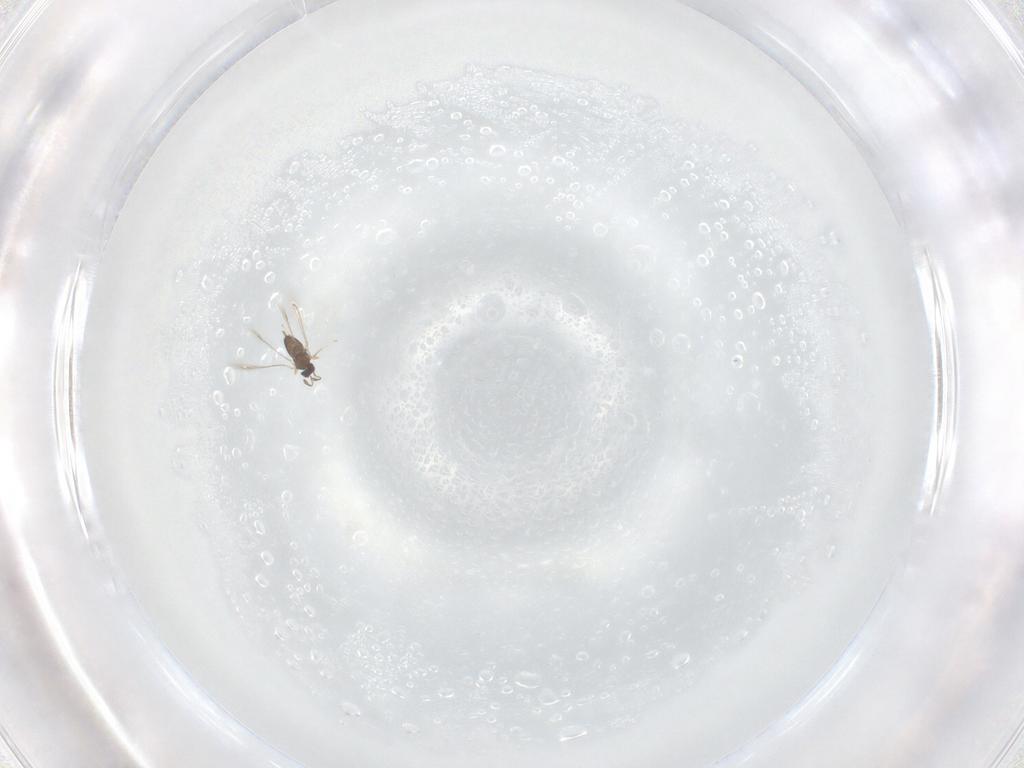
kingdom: Animalia
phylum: Arthropoda
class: Insecta
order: Hymenoptera
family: Mymaridae
